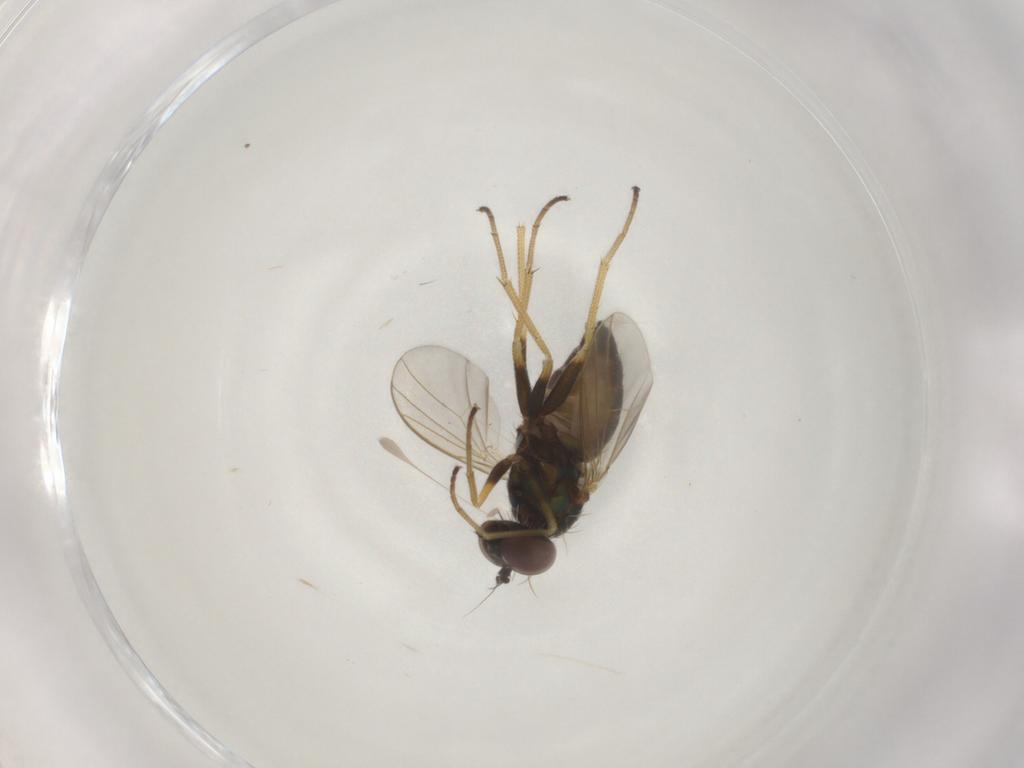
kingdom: Animalia
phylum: Arthropoda
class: Insecta
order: Diptera
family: Dolichopodidae
